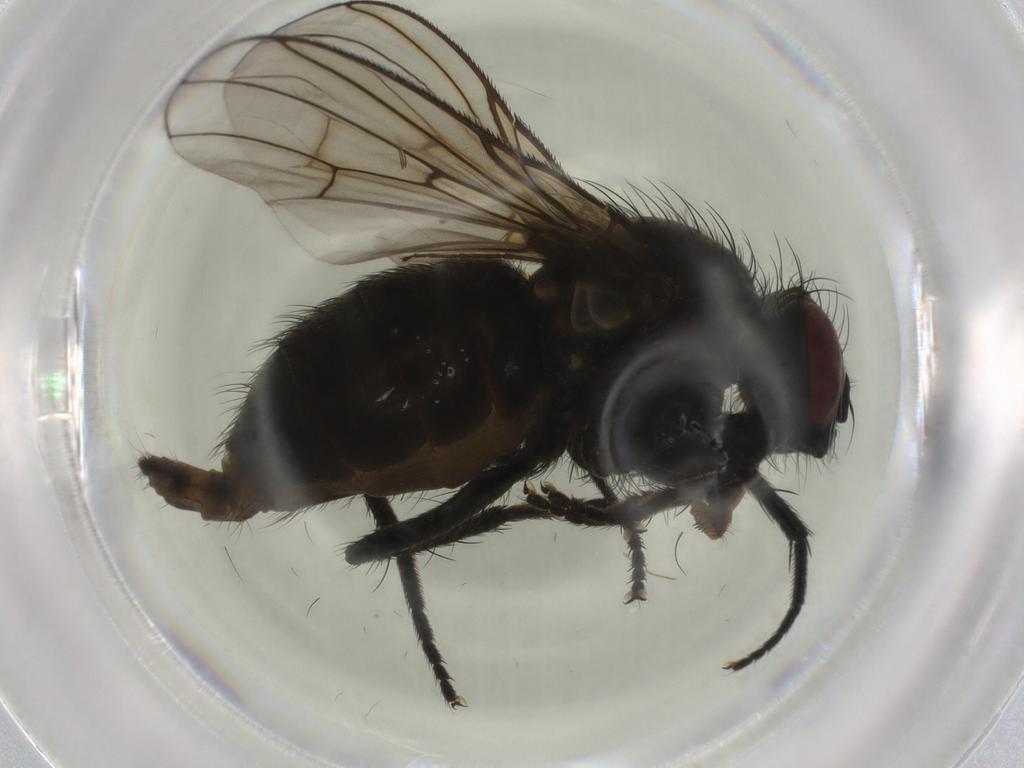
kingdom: Animalia
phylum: Arthropoda
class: Insecta
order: Diptera
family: Muscidae
